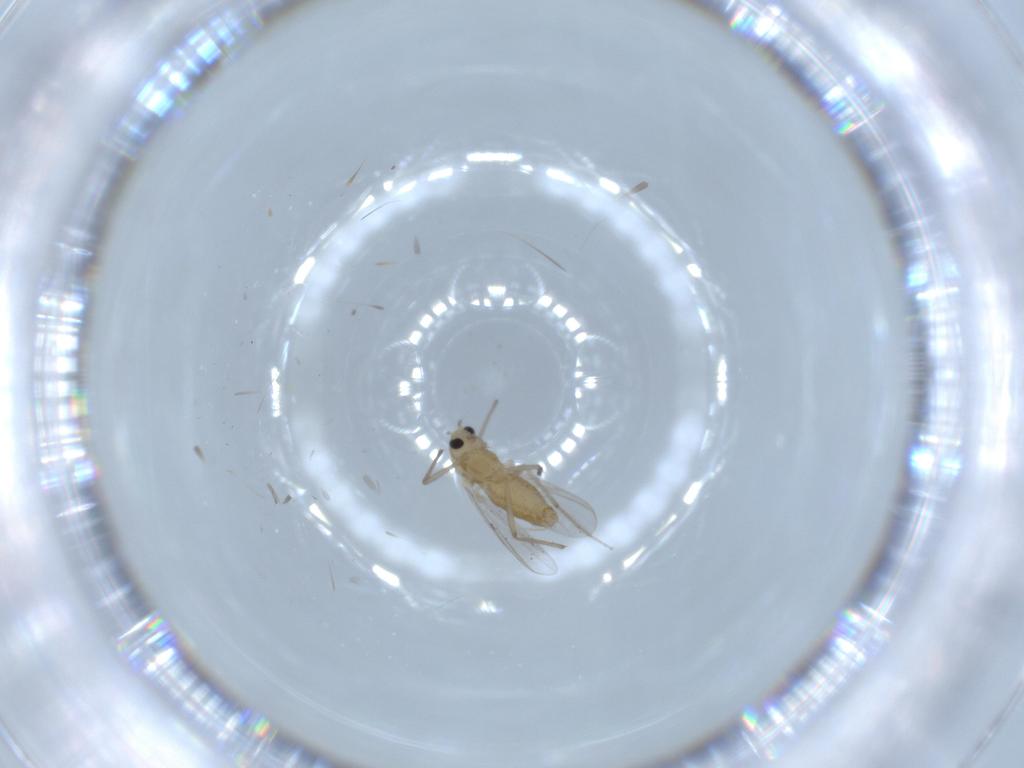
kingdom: Animalia
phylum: Arthropoda
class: Insecta
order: Diptera
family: Chironomidae
